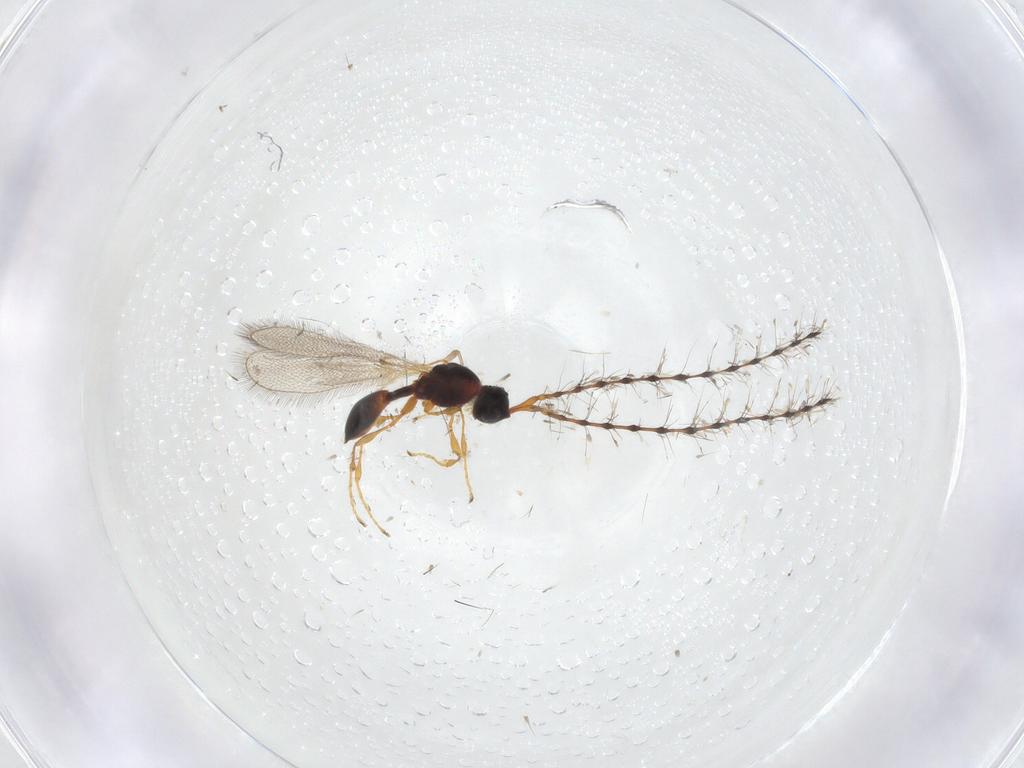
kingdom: Animalia
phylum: Arthropoda
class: Insecta
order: Hymenoptera
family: Diapriidae
